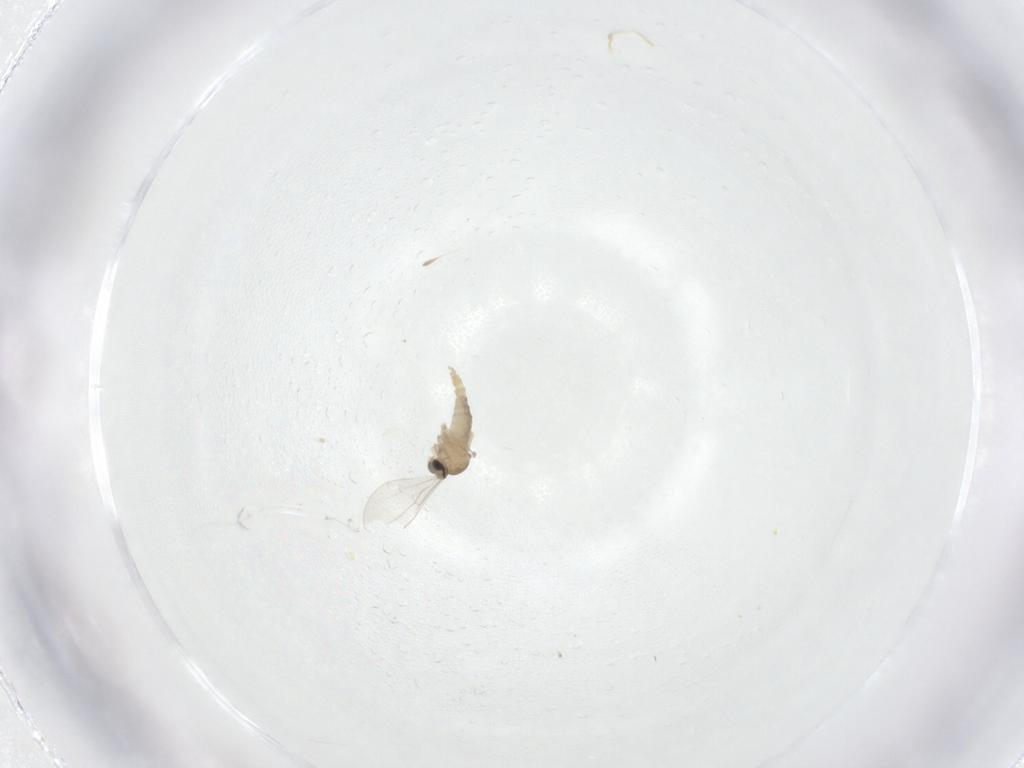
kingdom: Animalia
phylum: Arthropoda
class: Insecta
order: Diptera
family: Cecidomyiidae
